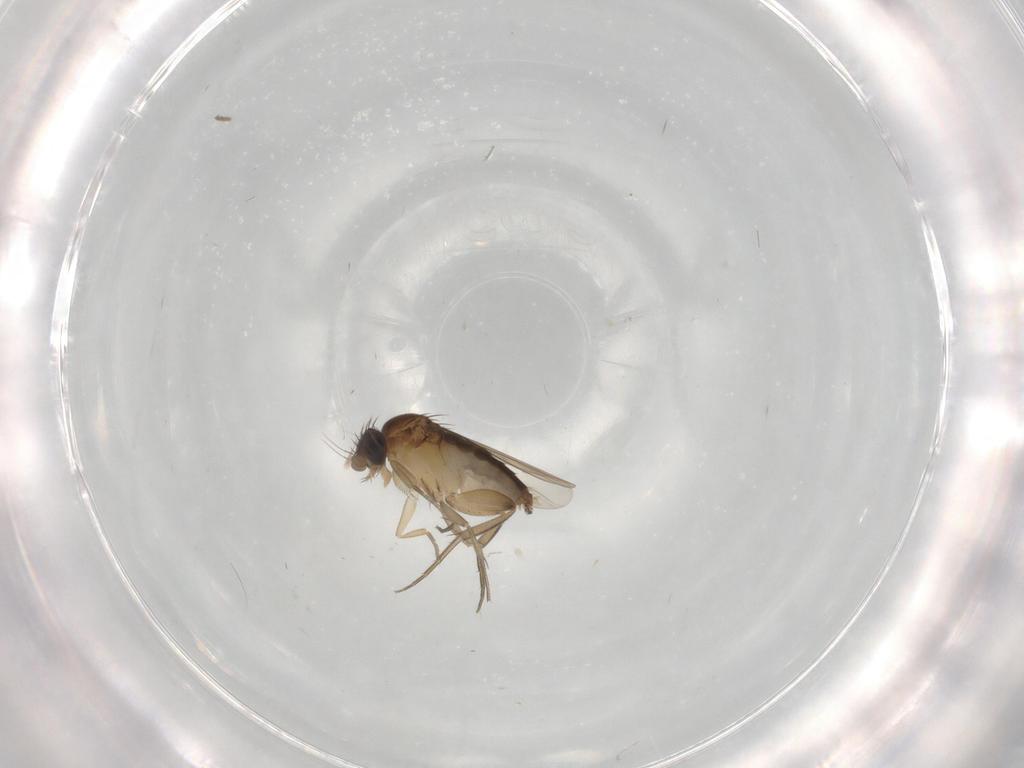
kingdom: Animalia
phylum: Arthropoda
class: Insecta
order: Diptera
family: Phoridae
